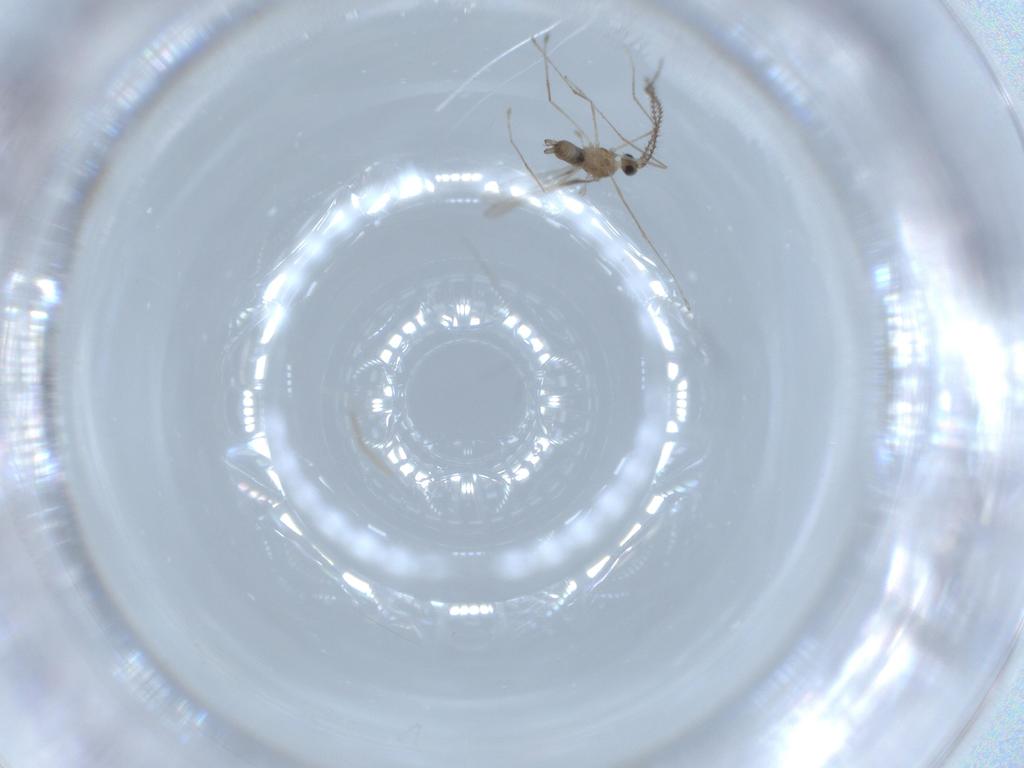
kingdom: Animalia
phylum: Arthropoda
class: Insecta
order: Diptera
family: Cecidomyiidae
